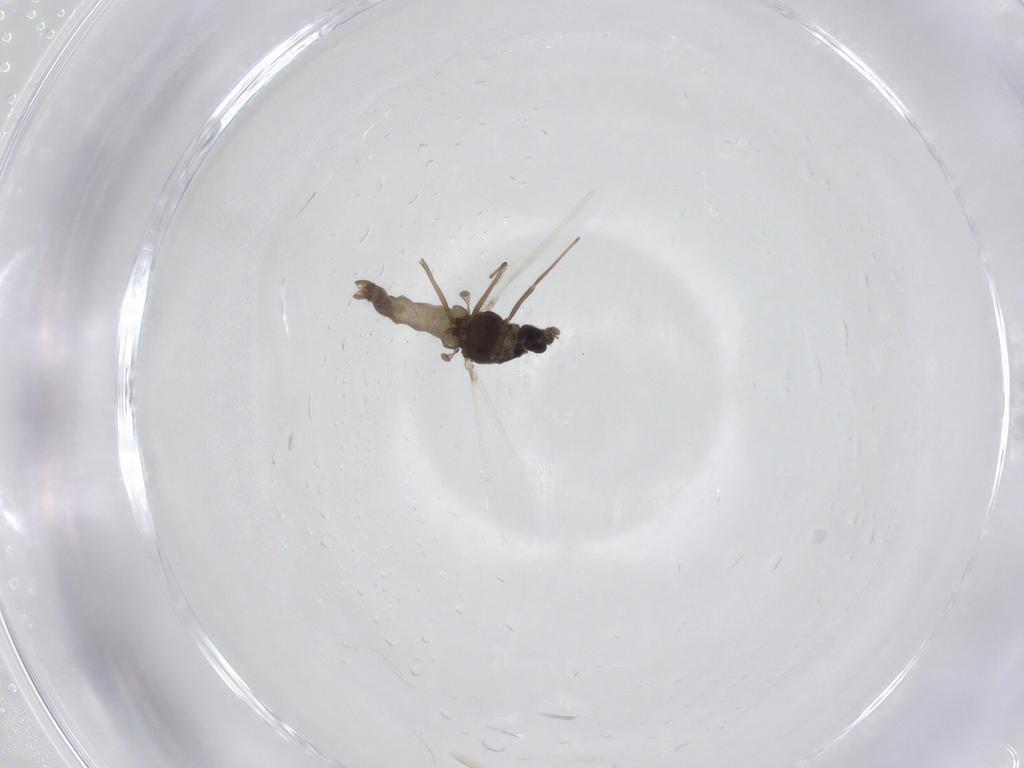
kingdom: Animalia
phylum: Arthropoda
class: Insecta
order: Diptera
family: Chironomidae
